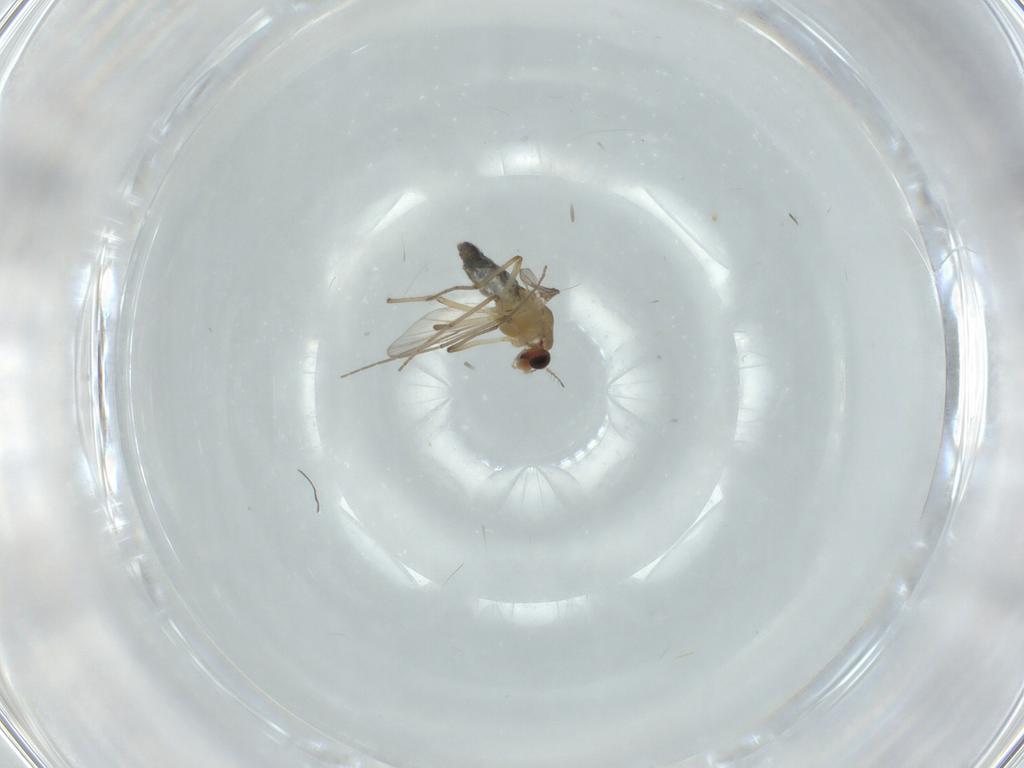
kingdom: Animalia
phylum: Arthropoda
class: Insecta
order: Diptera
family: Chironomidae
